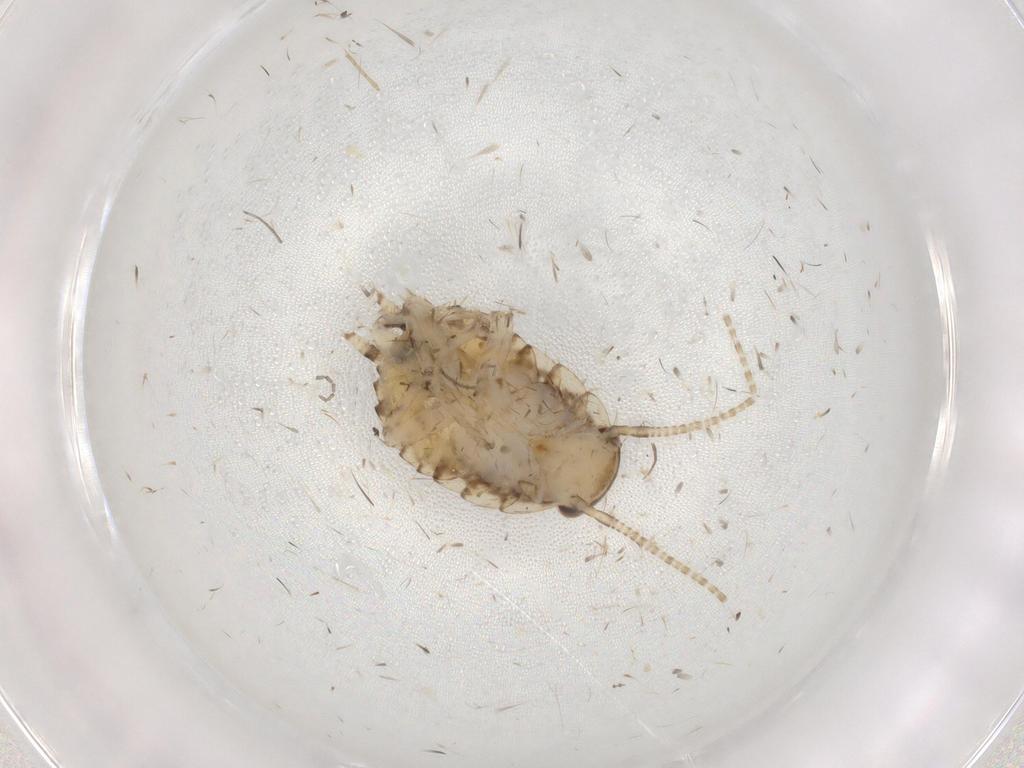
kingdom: Animalia
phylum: Arthropoda
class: Insecta
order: Blattodea
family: Ectobiidae
